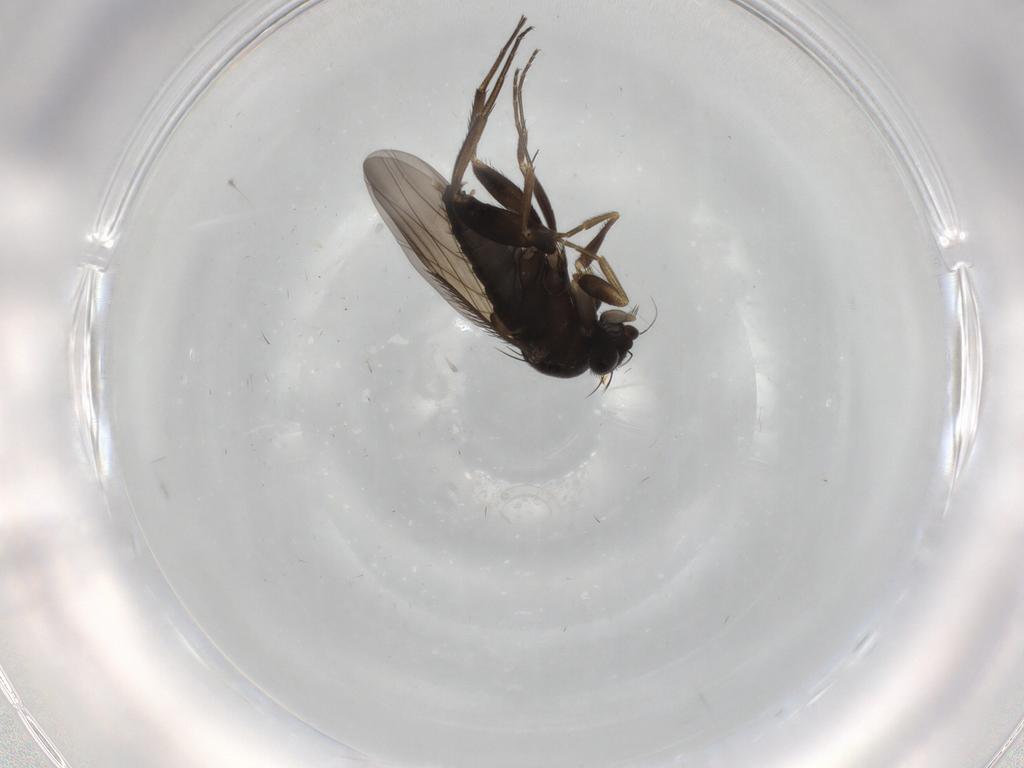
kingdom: Animalia
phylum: Arthropoda
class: Insecta
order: Diptera
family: Phoridae
